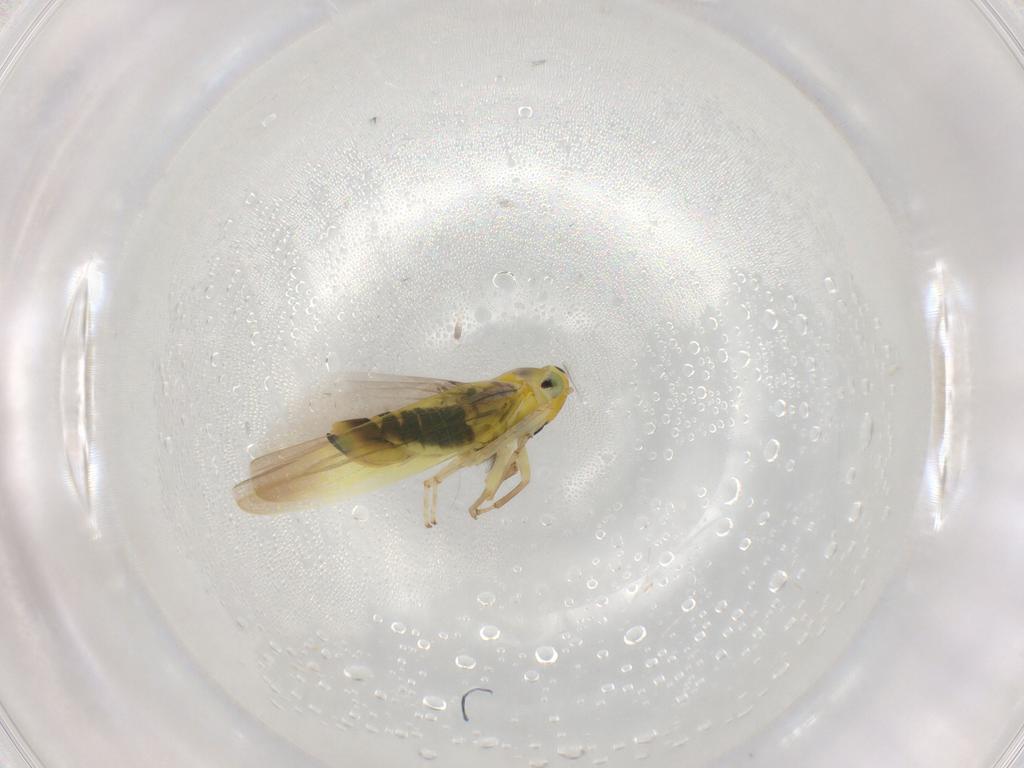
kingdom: Animalia
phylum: Arthropoda
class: Insecta
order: Hemiptera
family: Cicadellidae
